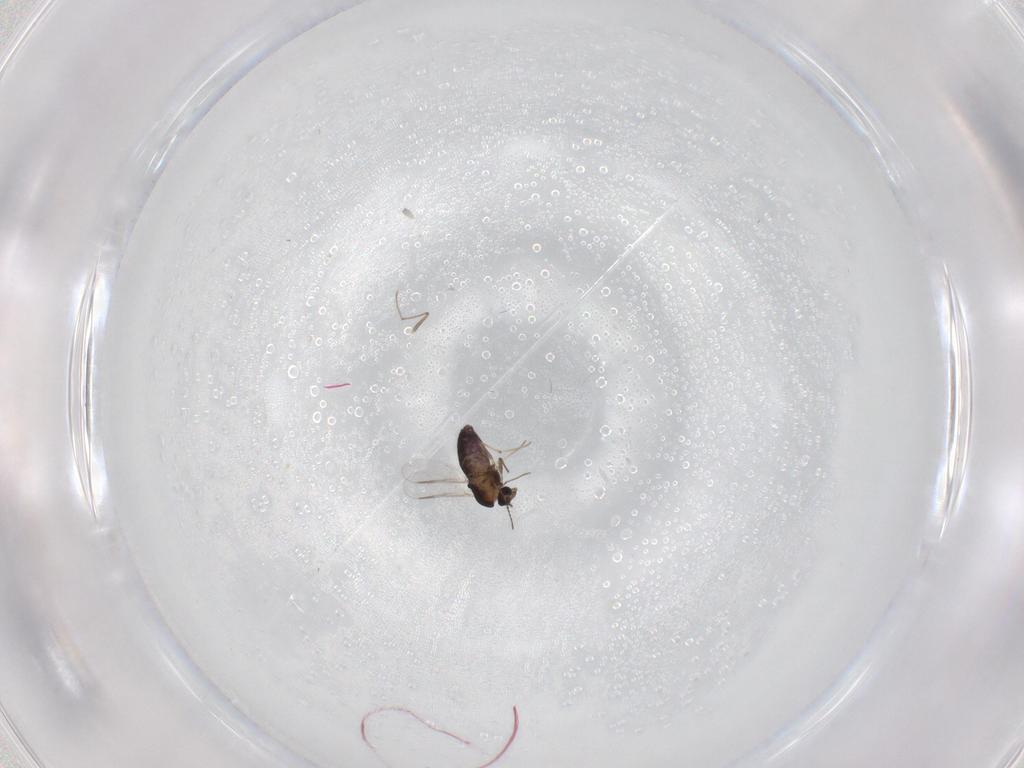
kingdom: Animalia
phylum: Arthropoda
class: Insecta
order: Diptera
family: Chironomidae
